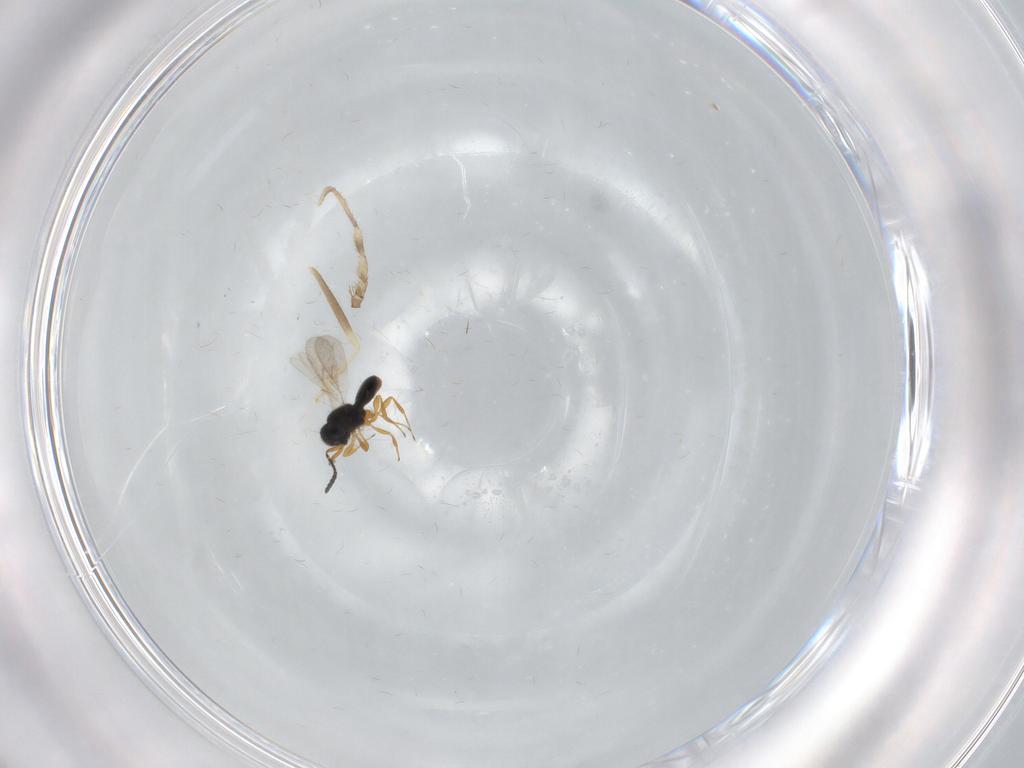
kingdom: Animalia
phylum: Arthropoda
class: Insecta
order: Hymenoptera
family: Scelionidae
